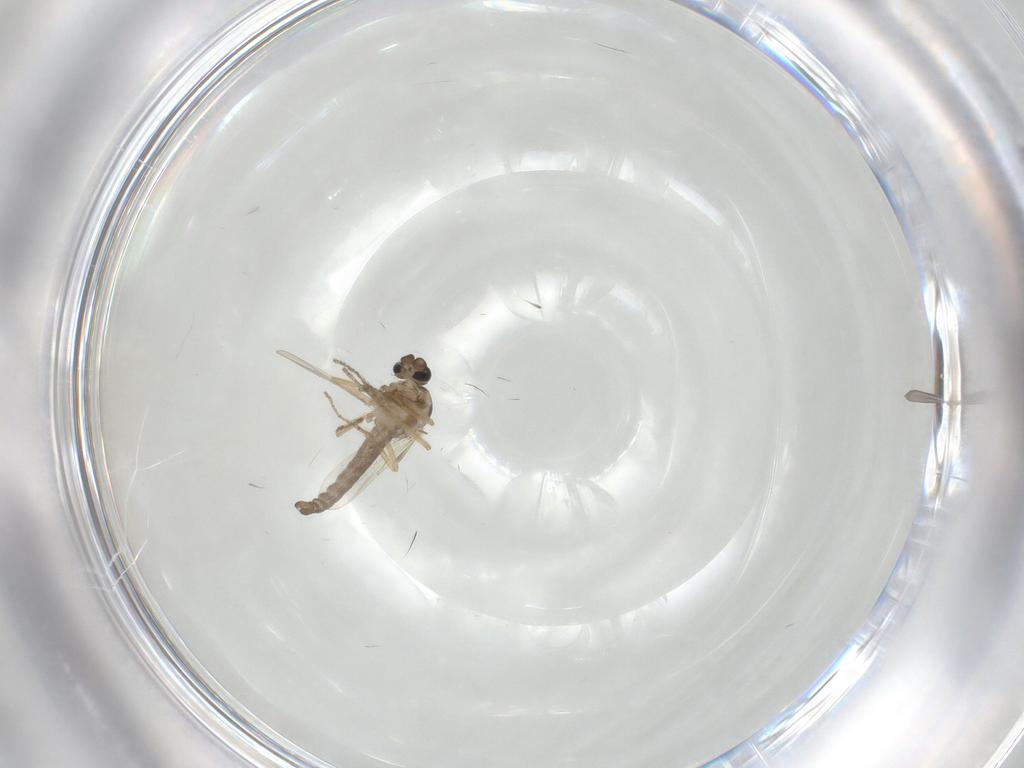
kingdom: Animalia
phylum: Arthropoda
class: Insecta
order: Diptera
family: Ceratopogonidae
